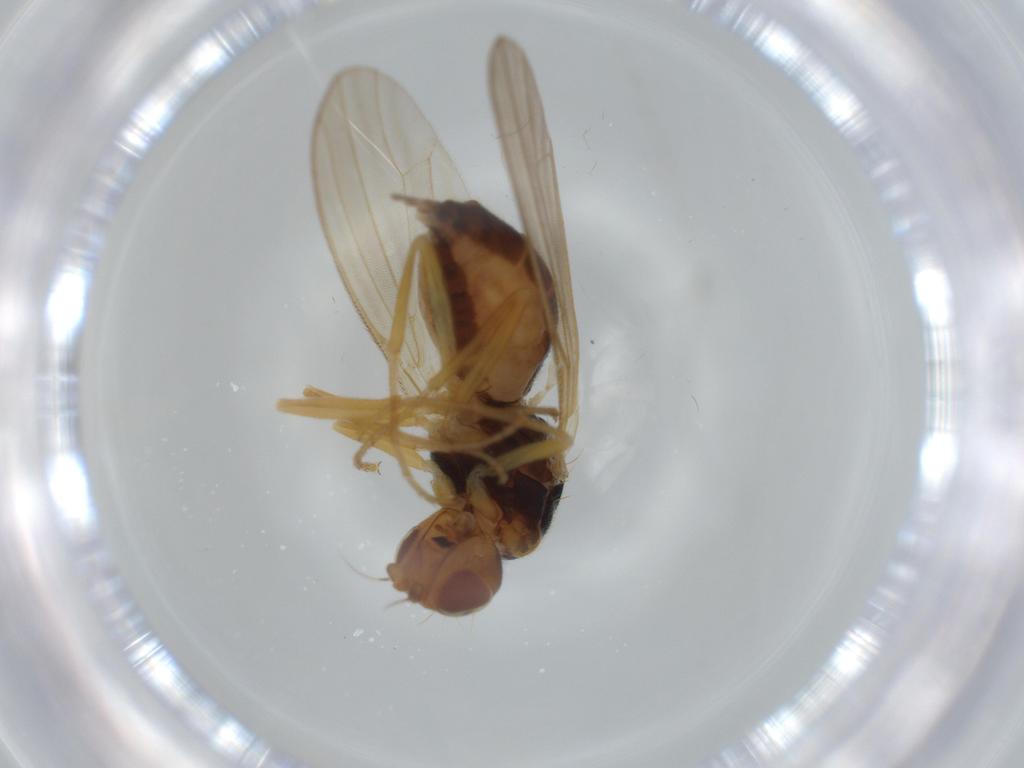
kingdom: Animalia
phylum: Arthropoda
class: Insecta
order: Diptera
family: Psilidae
